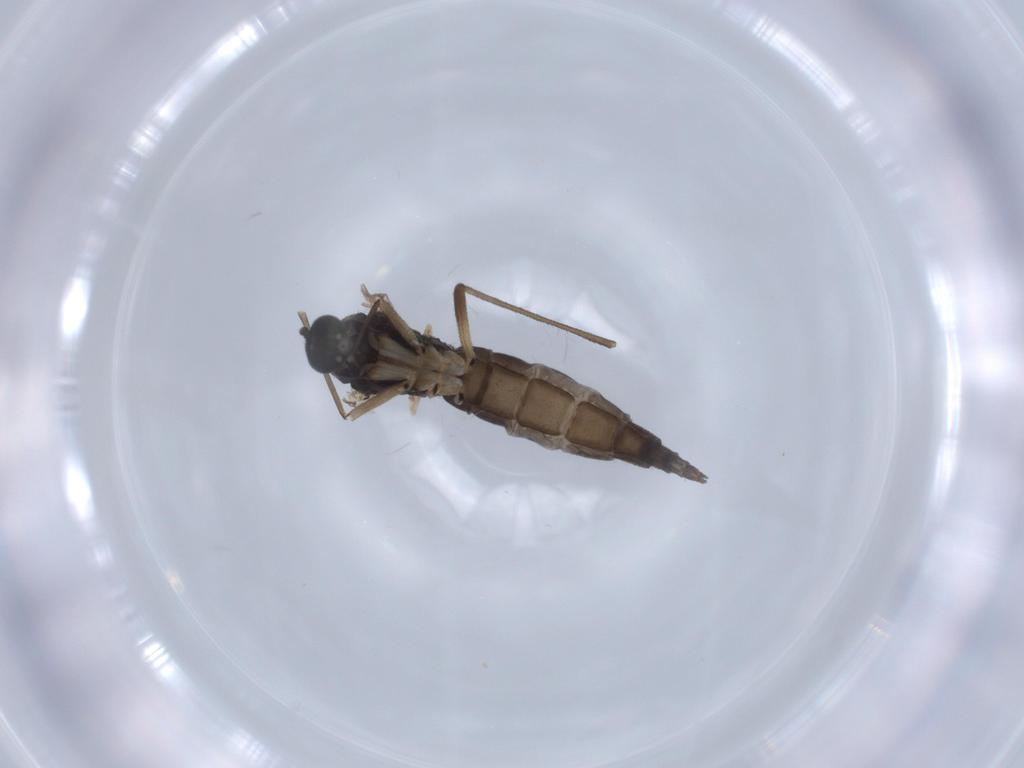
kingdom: Animalia
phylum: Arthropoda
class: Insecta
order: Diptera
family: Sciaridae
